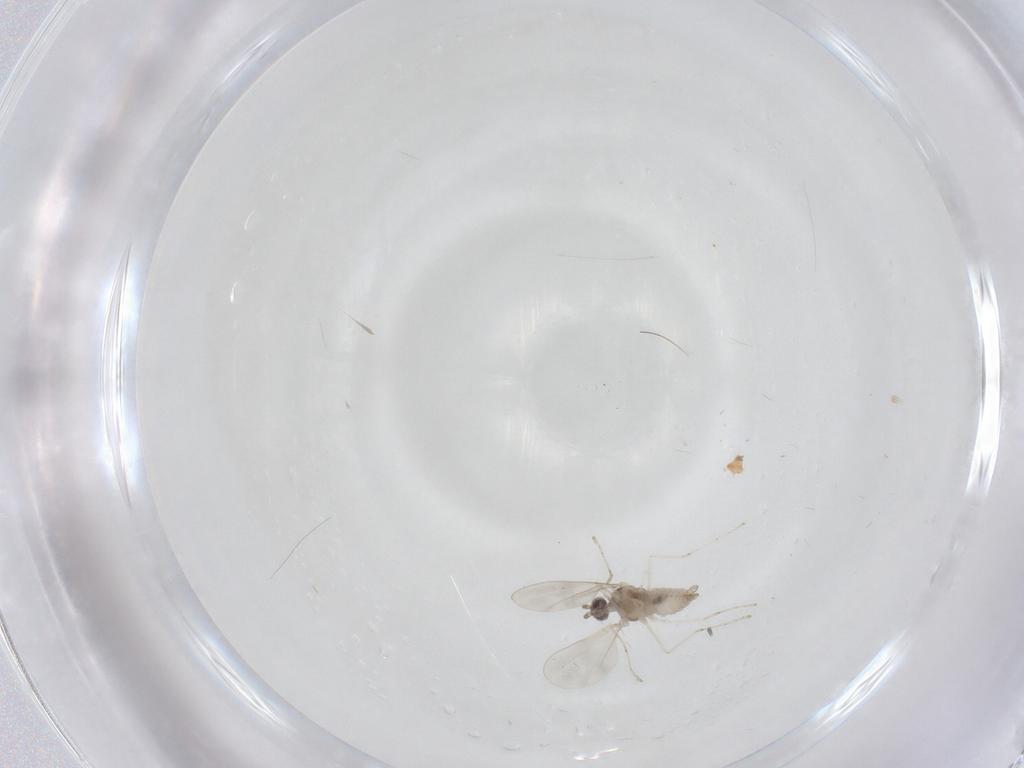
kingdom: Animalia
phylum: Arthropoda
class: Insecta
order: Diptera
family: Cecidomyiidae
